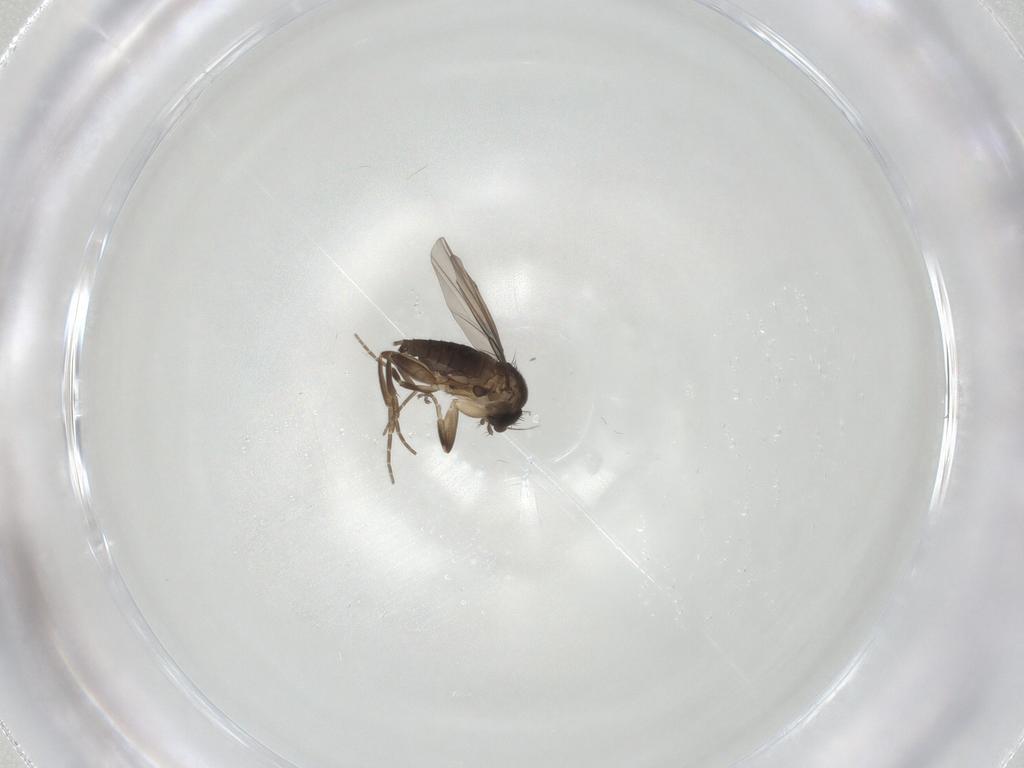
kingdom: Animalia
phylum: Arthropoda
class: Insecta
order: Diptera
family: Phoridae
